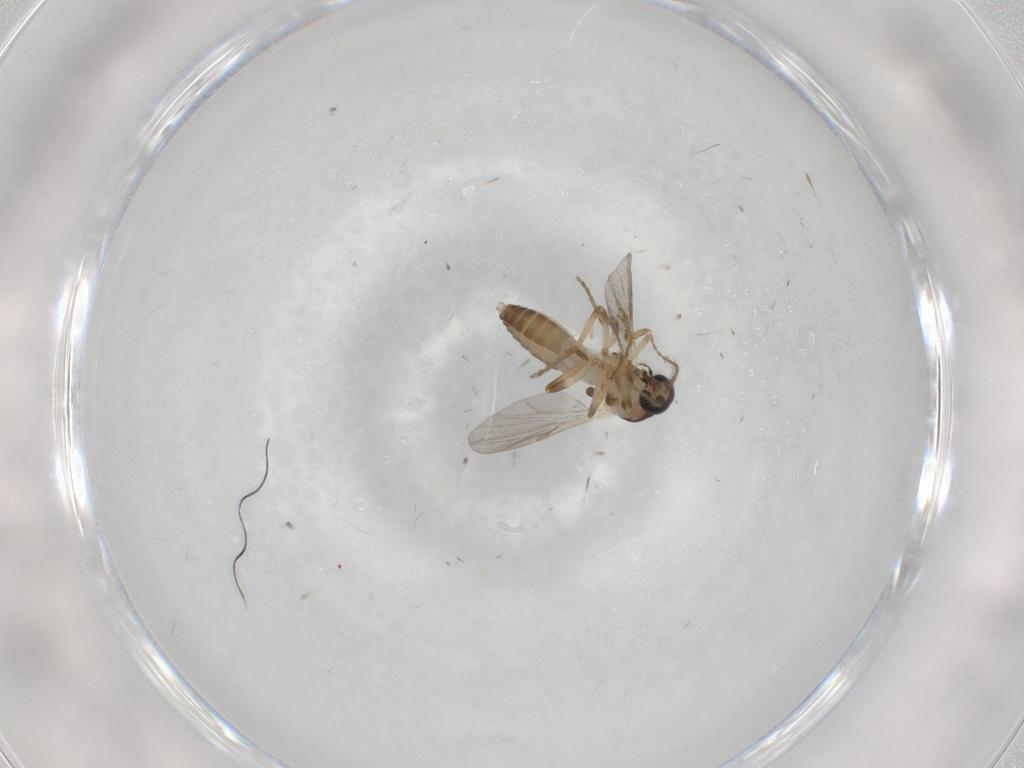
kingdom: Animalia
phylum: Arthropoda
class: Insecta
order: Diptera
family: Ceratopogonidae
